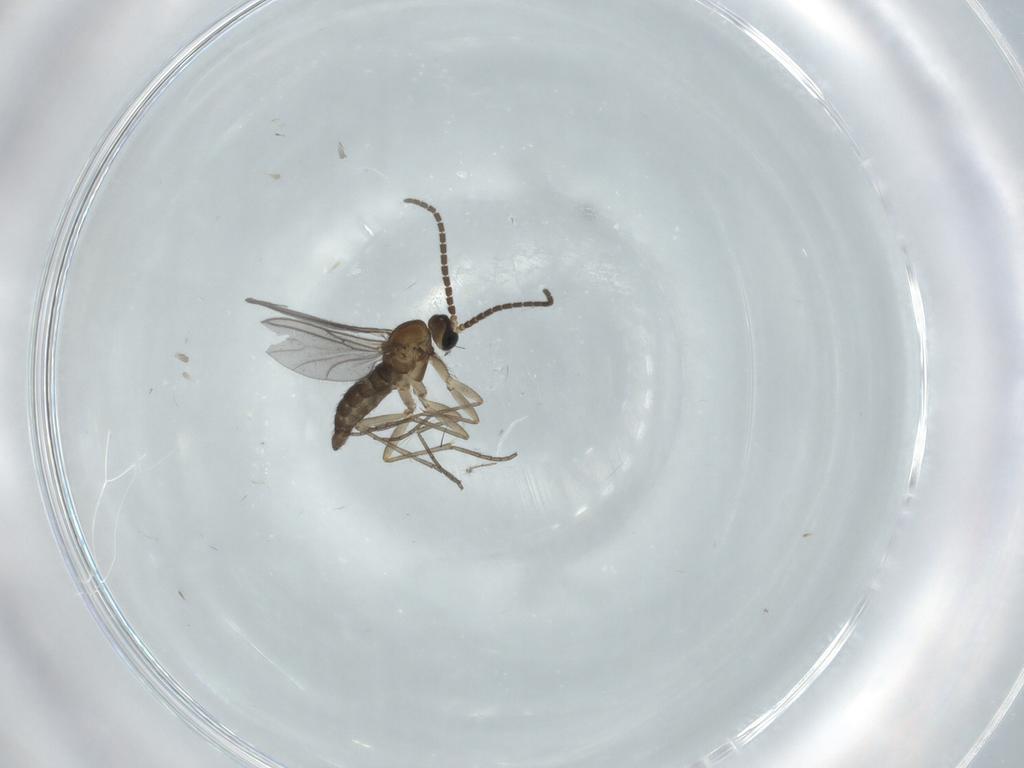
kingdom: Animalia
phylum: Arthropoda
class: Insecta
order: Diptera
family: Sciaridae
